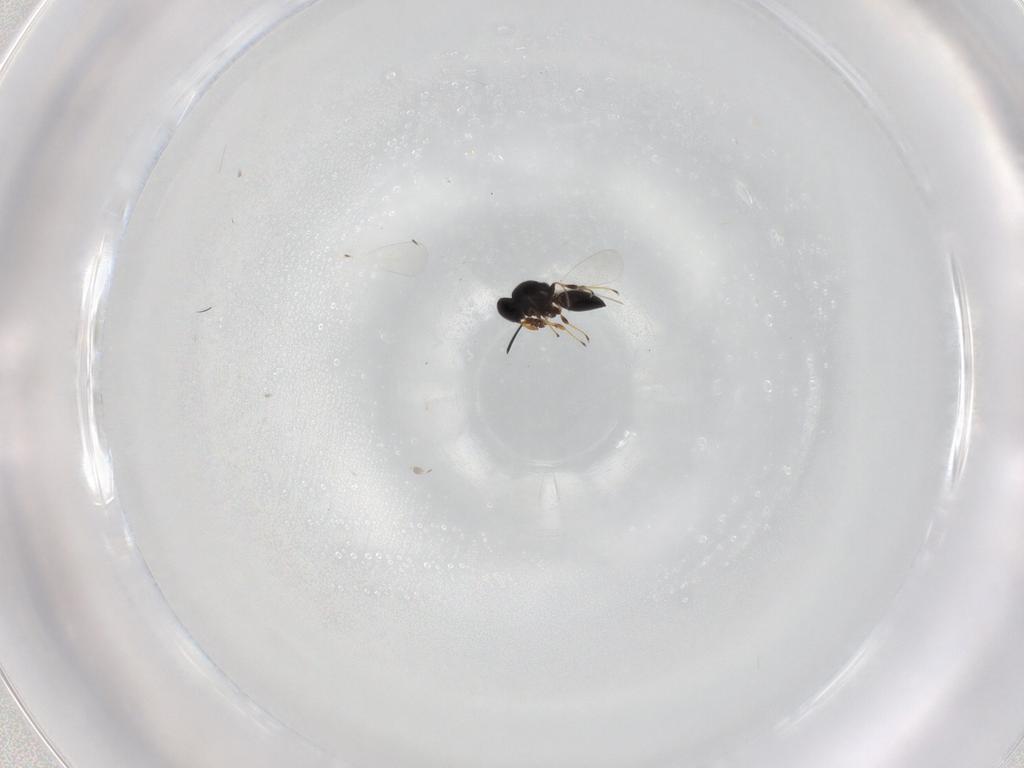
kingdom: Animalia
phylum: Arthropoda
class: Insecta
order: Hymenoptera
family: Platygastridae
